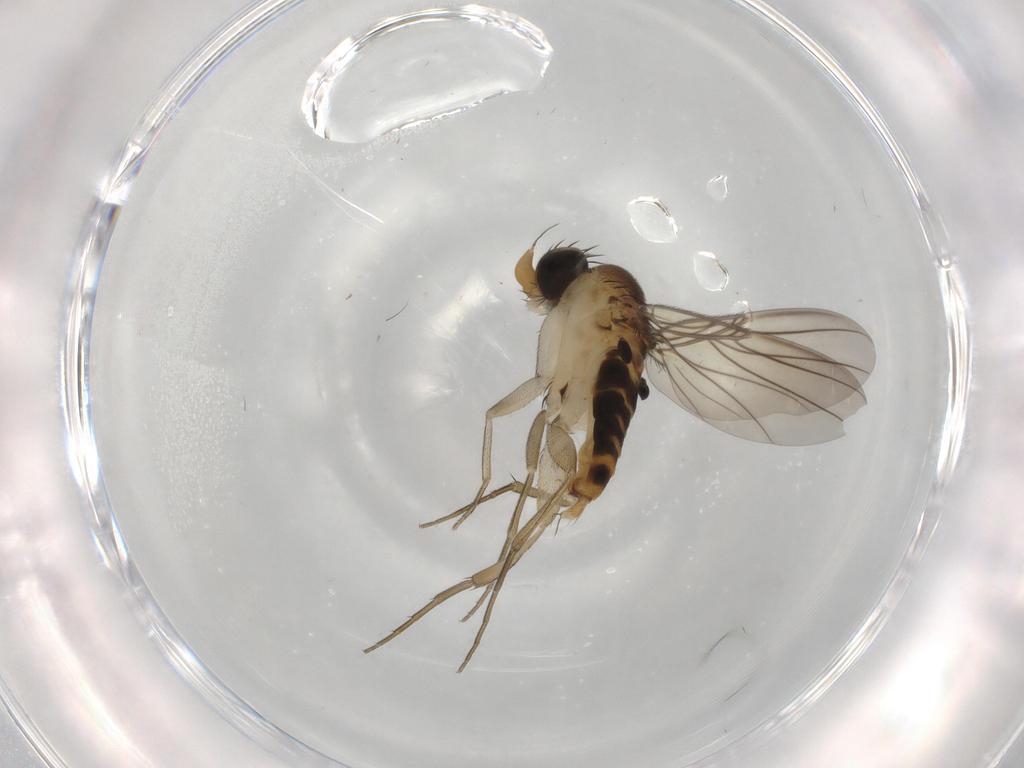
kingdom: Animalia
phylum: Arthropoda
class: Insecta
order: Diptera
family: Phoridae
